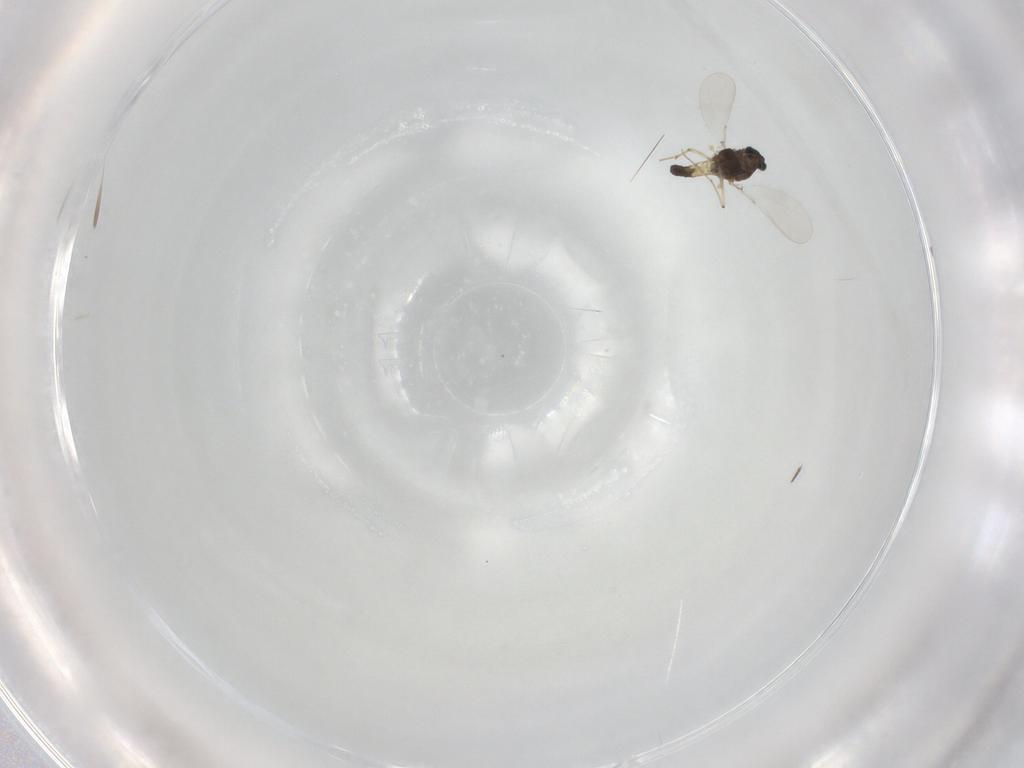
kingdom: Animalia
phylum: Arthropoda
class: Insecta
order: Diptera
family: Chironomidae
